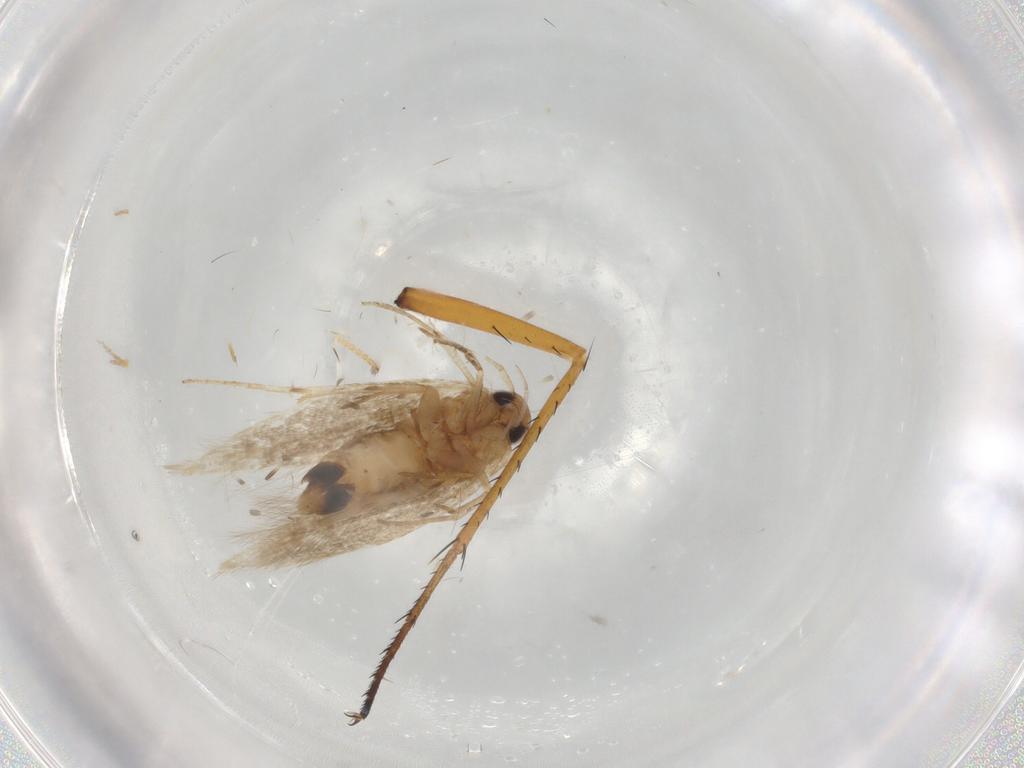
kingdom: Animalia
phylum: Arthropoda
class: Insecta
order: Lepidoptera
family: Cosmopterigidae
